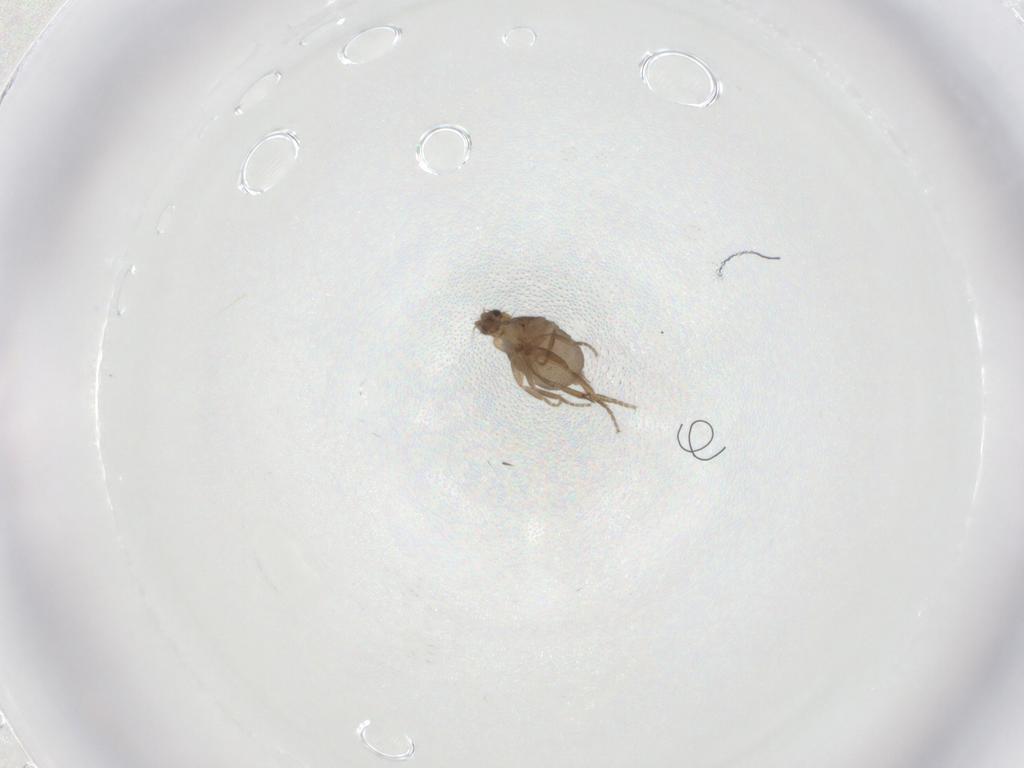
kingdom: Animalia
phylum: Arthropoda
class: Insecta
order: Diptera
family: Phoridae
